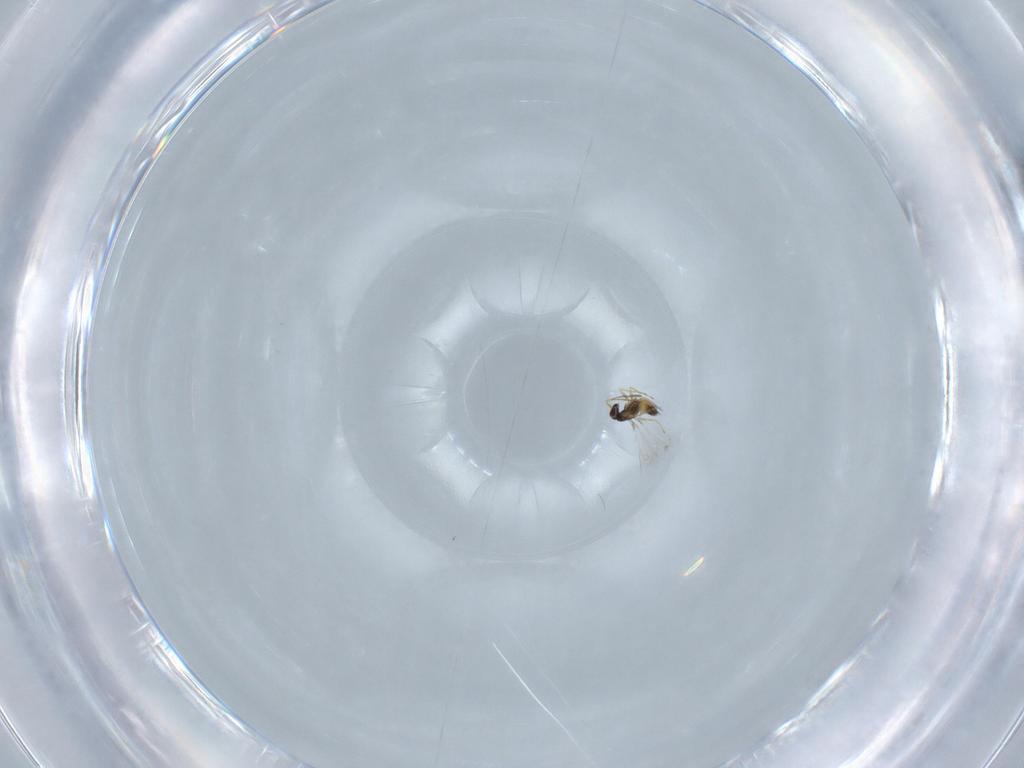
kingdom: Animalia
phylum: Arthropoda
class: Insecta
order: Hymenoptera
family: Mymaridae
